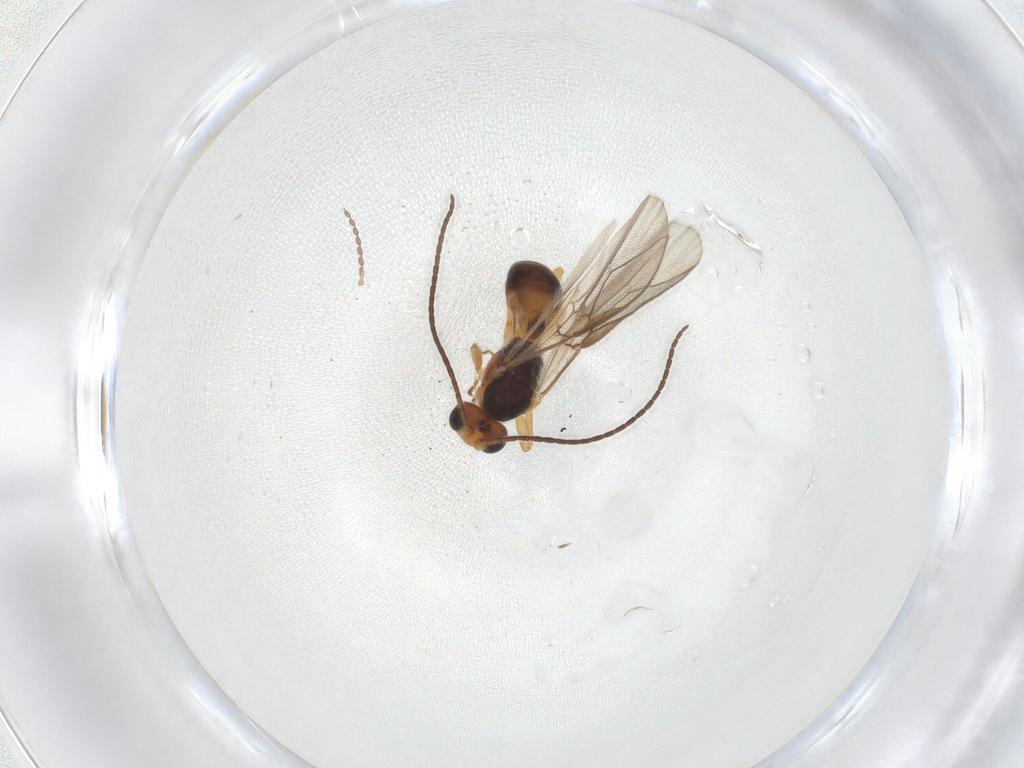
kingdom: Animalia
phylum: Arthropoda
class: Insecta
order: Hymenoptera
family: Braconidae
